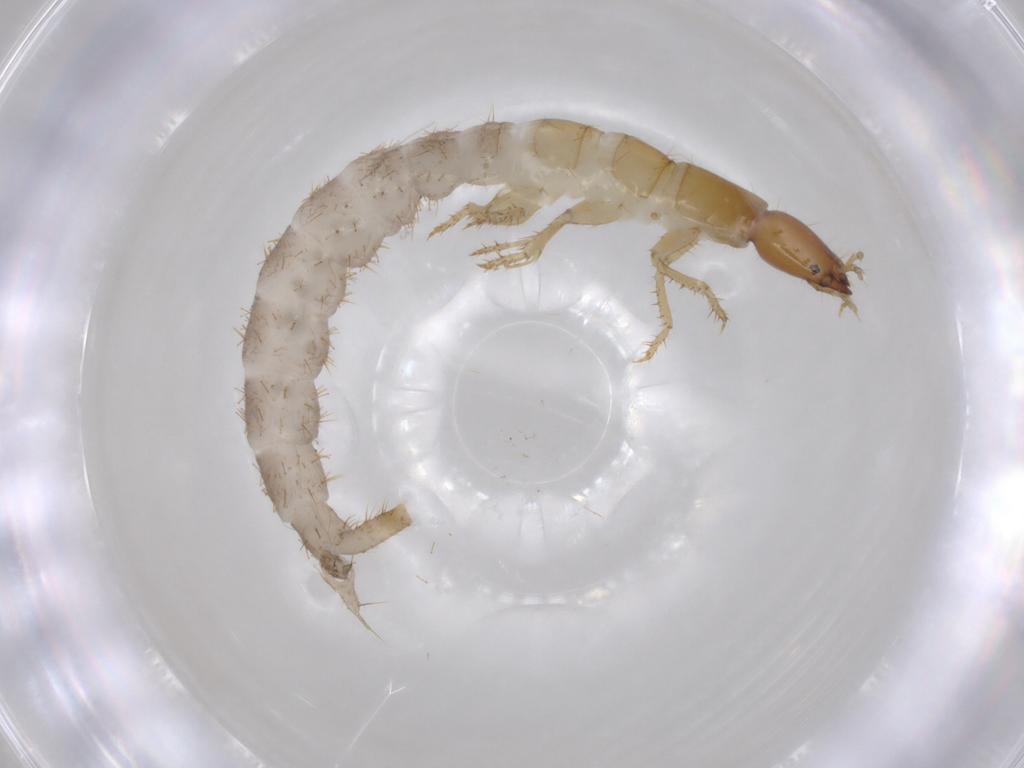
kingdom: Animalia
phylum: Arthropoda
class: Insecta
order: Coleoptera
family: Staphylinidae
